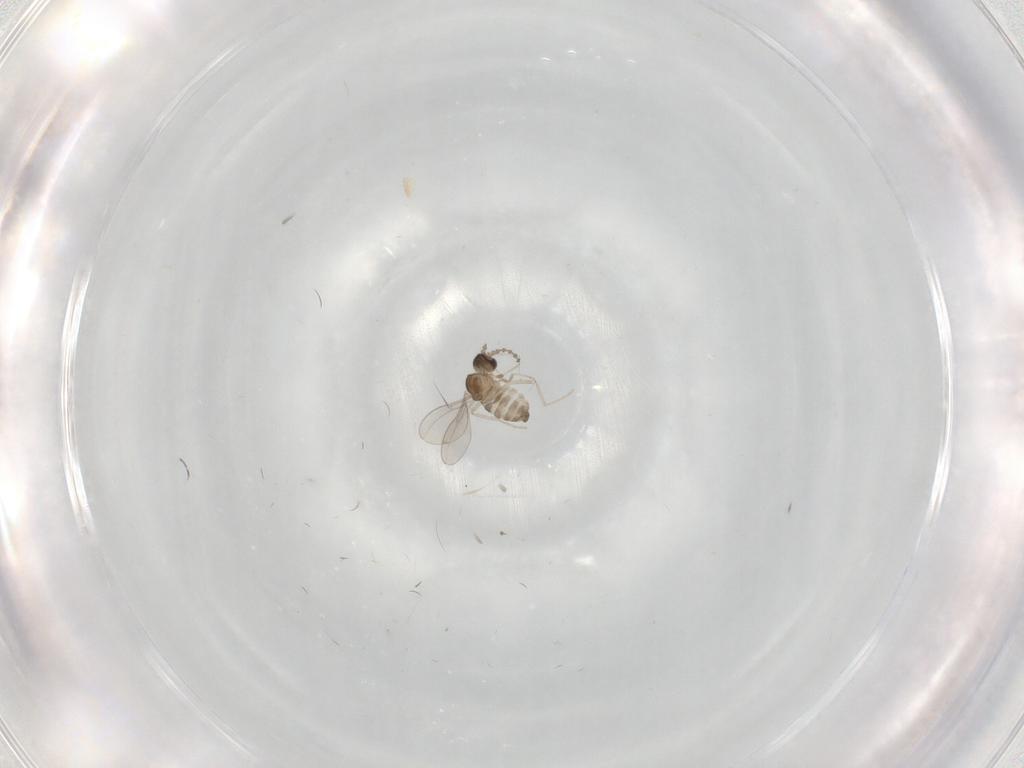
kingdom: Animalia
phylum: Arthropoda
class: Insecta
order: Diptera
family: Cecidomyiidae
